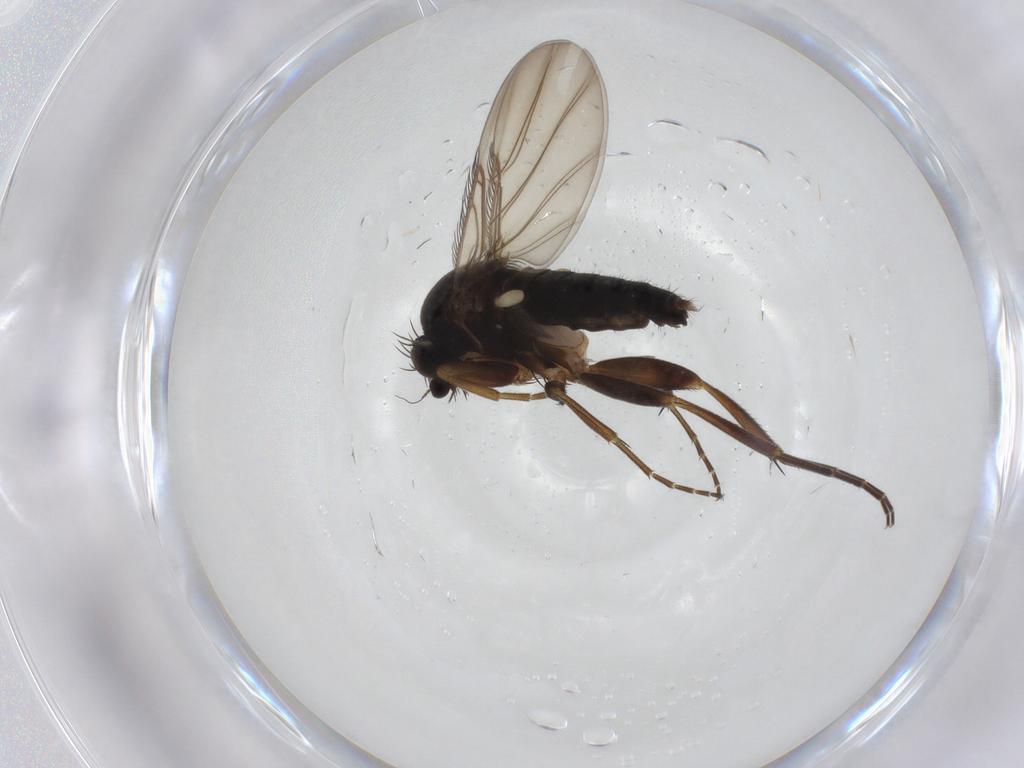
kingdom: Animalia
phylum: Arthropoda
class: Insecta
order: Diptera
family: Phoridae
